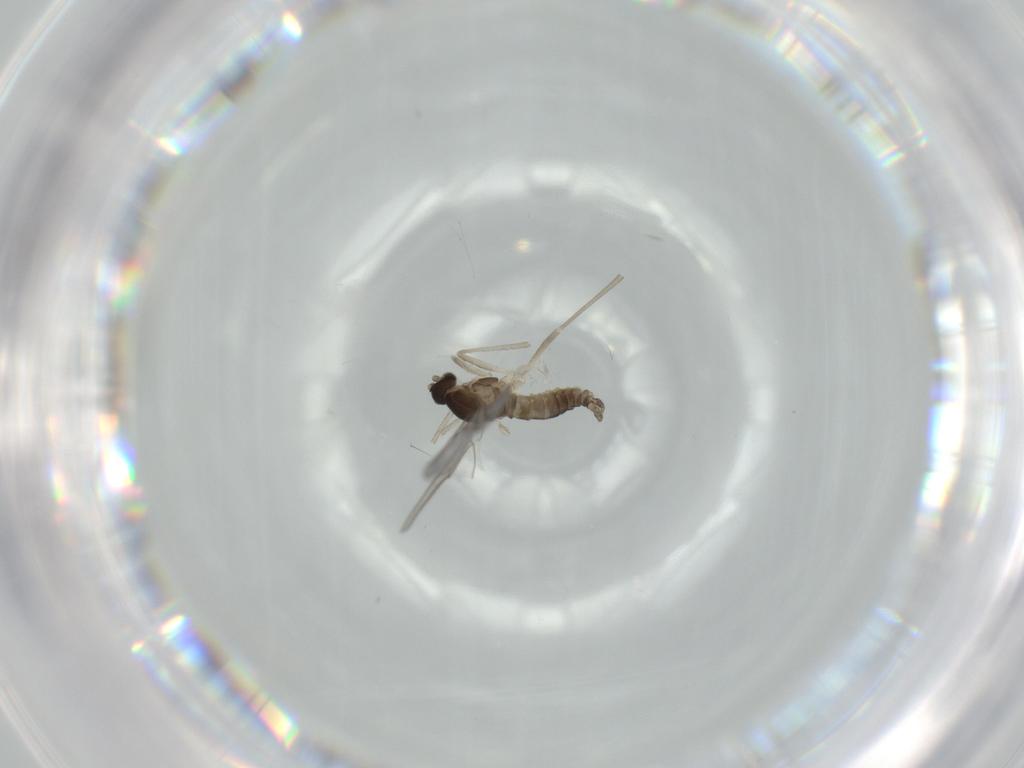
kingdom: Animalia
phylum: Arthropoda
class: Insecta
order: Diptera
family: Chironomidae
